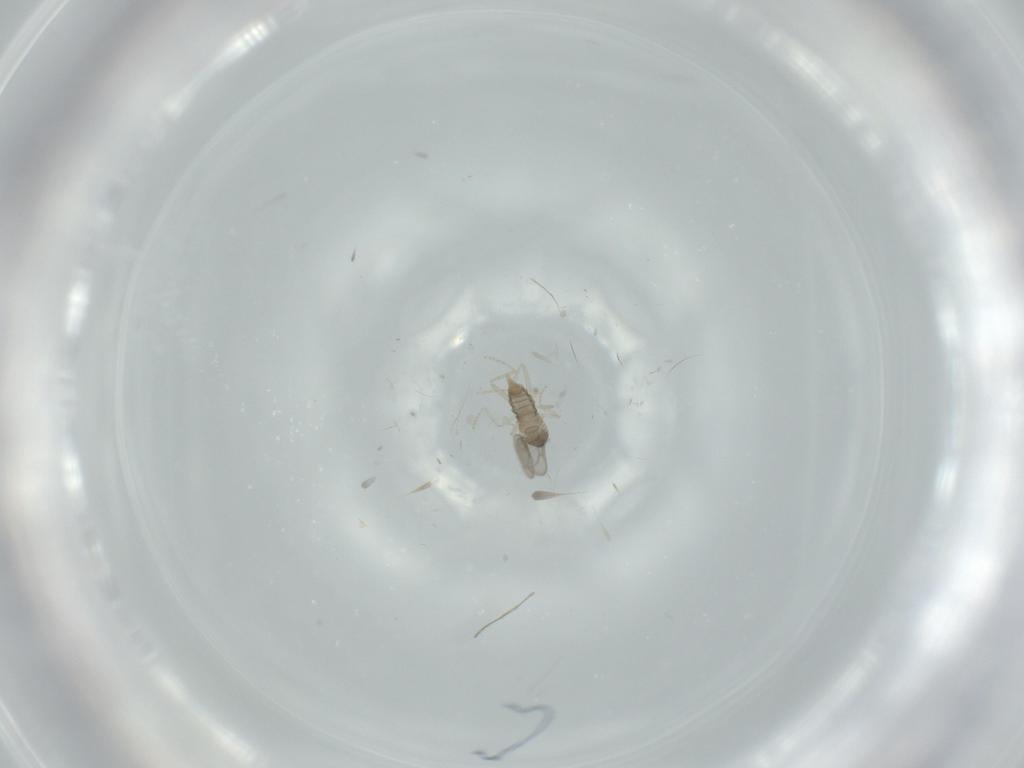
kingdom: Animalia
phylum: Arthropoda
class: Insecta
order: Diptera
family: Cecidomyiidae
